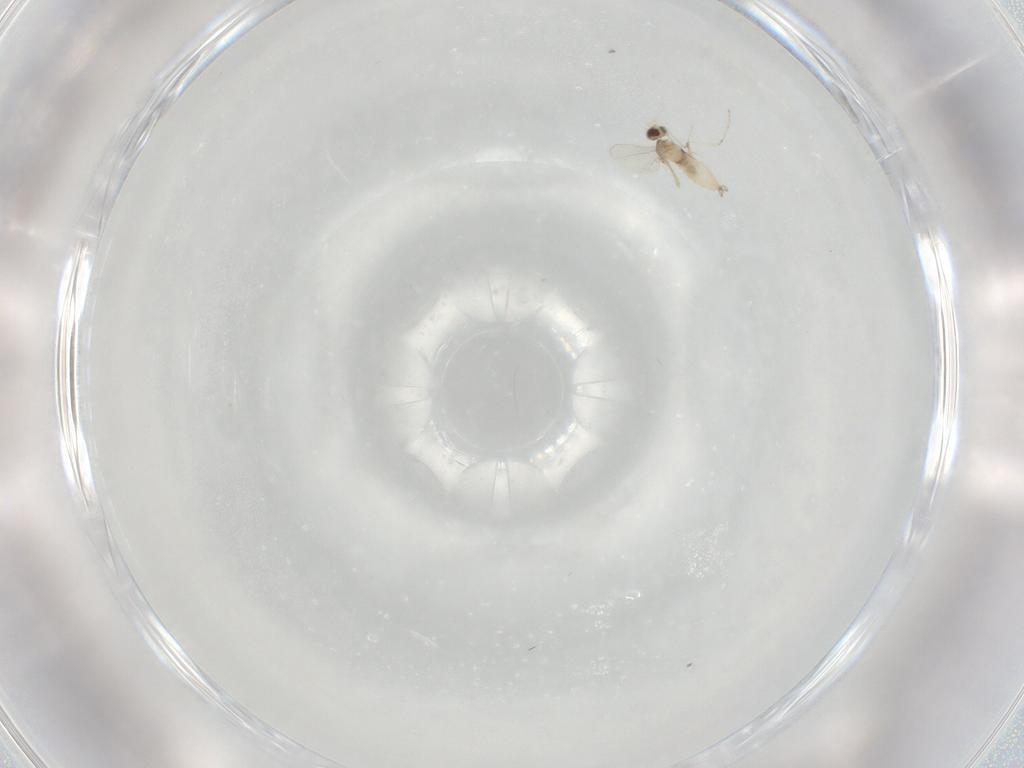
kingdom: Animalia
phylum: Arthropoda
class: Insecta
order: Diptera
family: Cecidomyiidae
